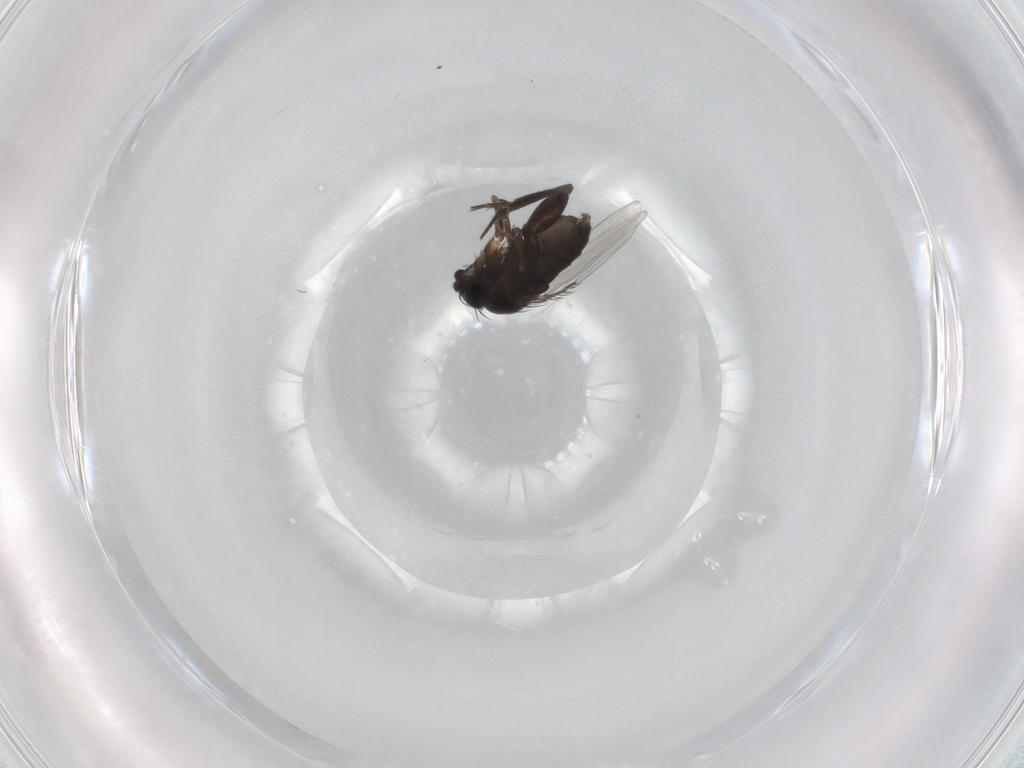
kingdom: Animalia
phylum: Arthropoda
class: Insecta
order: Diptera
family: Phoridae
